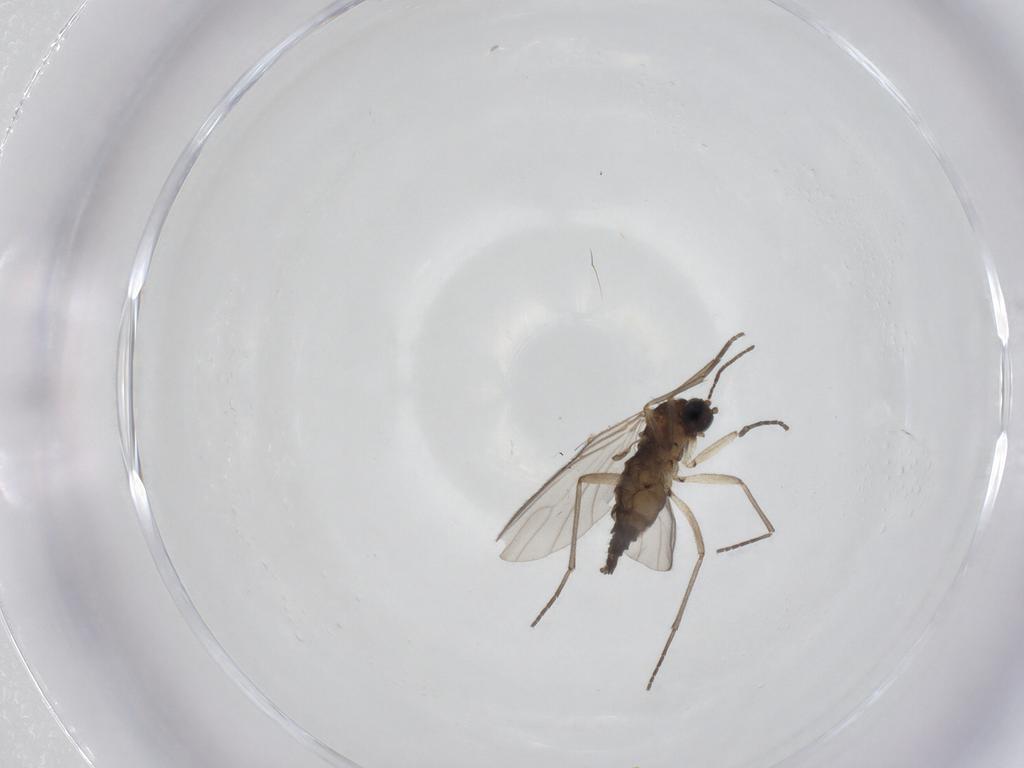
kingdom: Animalia
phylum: Arthropoda
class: Insecta
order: Diptera
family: Sciaridae
